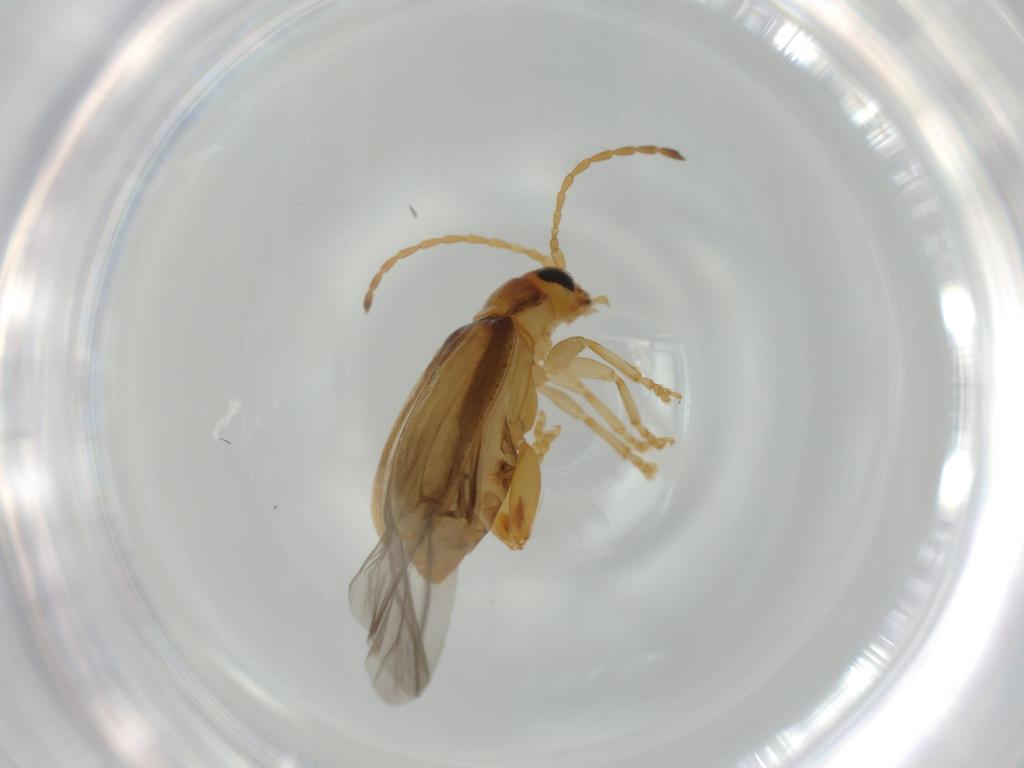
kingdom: Animalia
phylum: Arthropoda
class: Insecta
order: Coleoptera
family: Chrysomelidae
